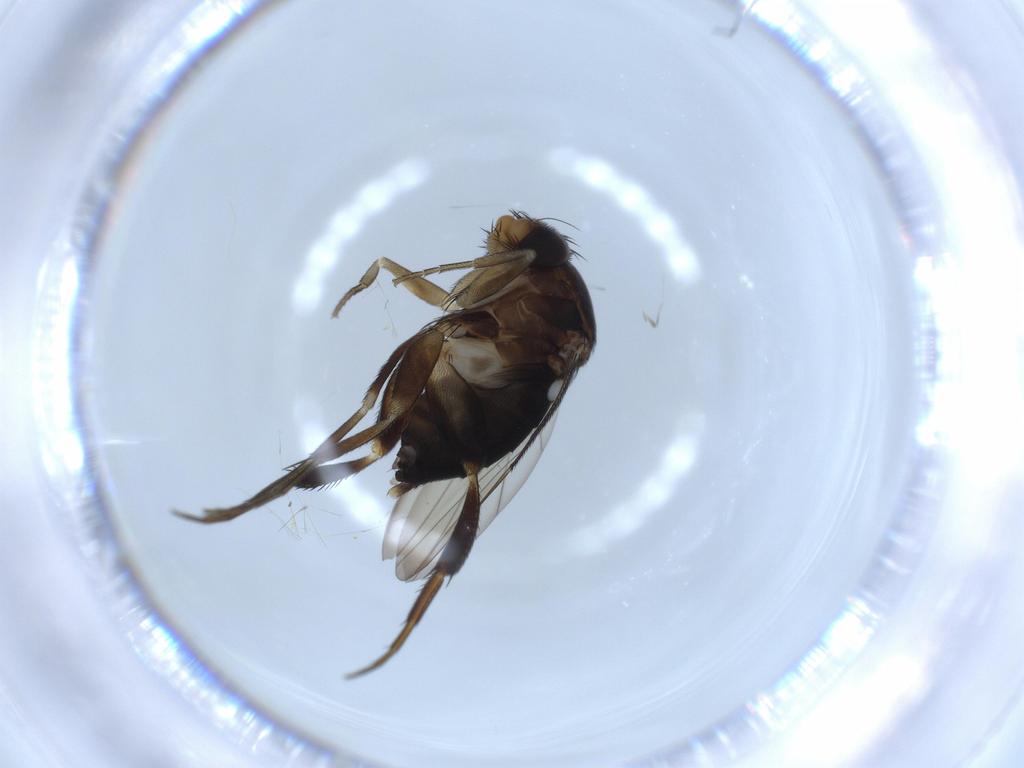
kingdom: Animalia
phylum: Arthropoda
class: Insecta
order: Diptera
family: Phoridae
